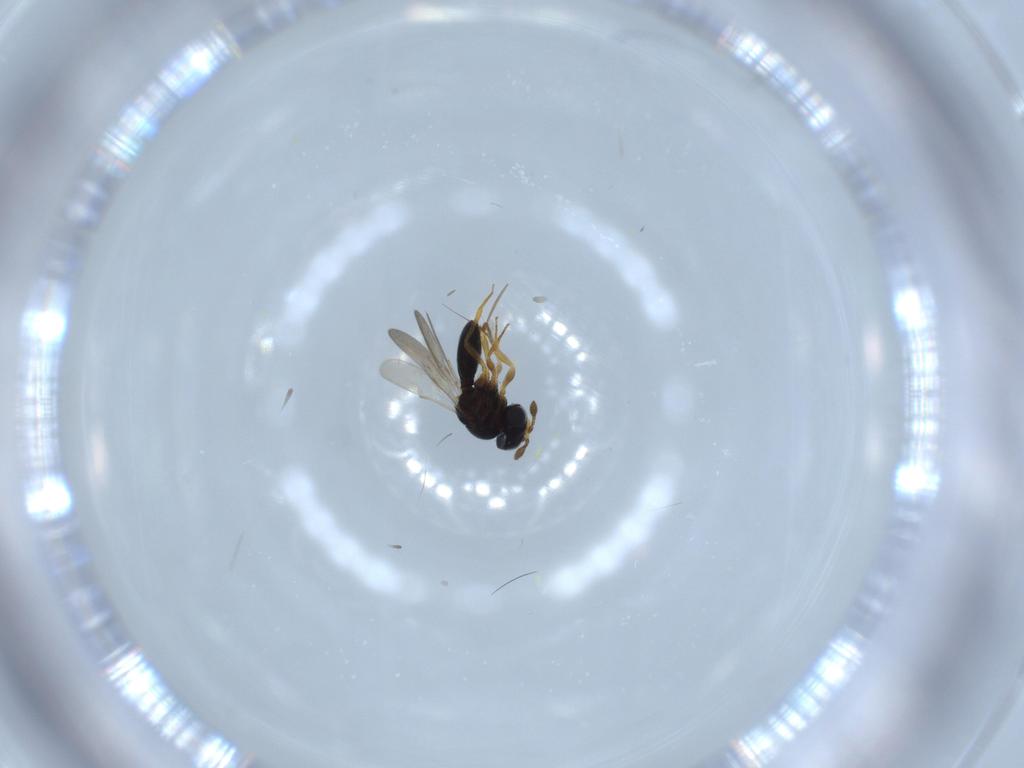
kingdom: Animalia
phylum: Arthropoda
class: Insecta
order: Hymenoptera
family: Scelionidae
